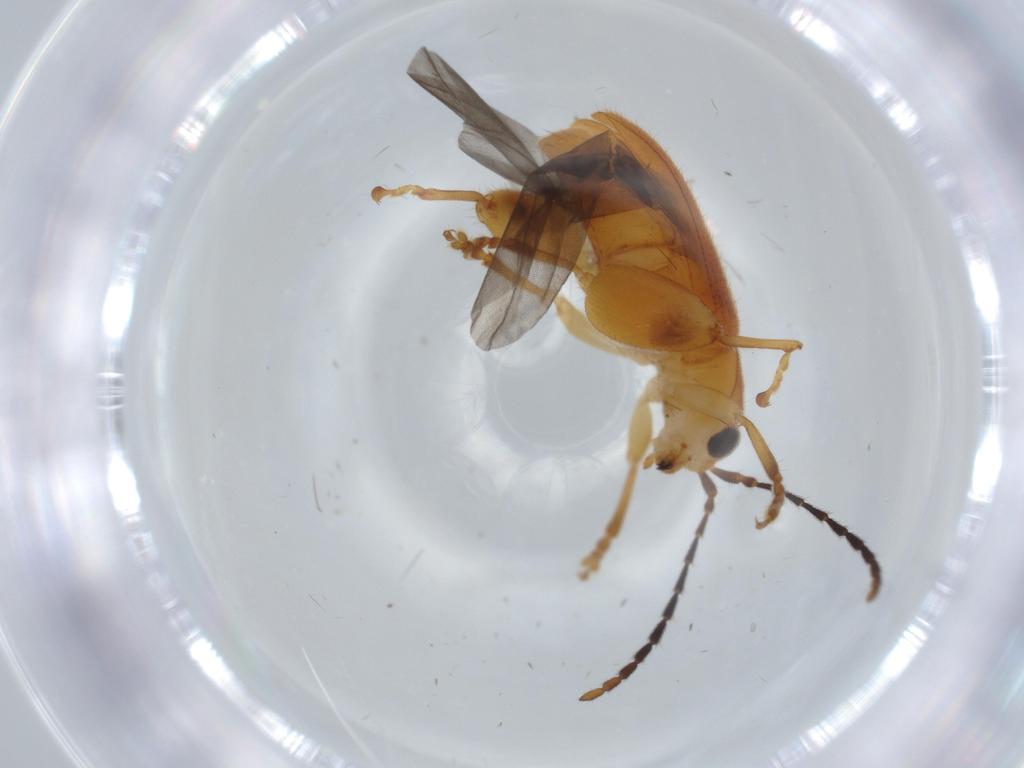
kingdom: Animalia
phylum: Arthropoda
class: Insecta
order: Coleoptera
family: Chrysomelidae
